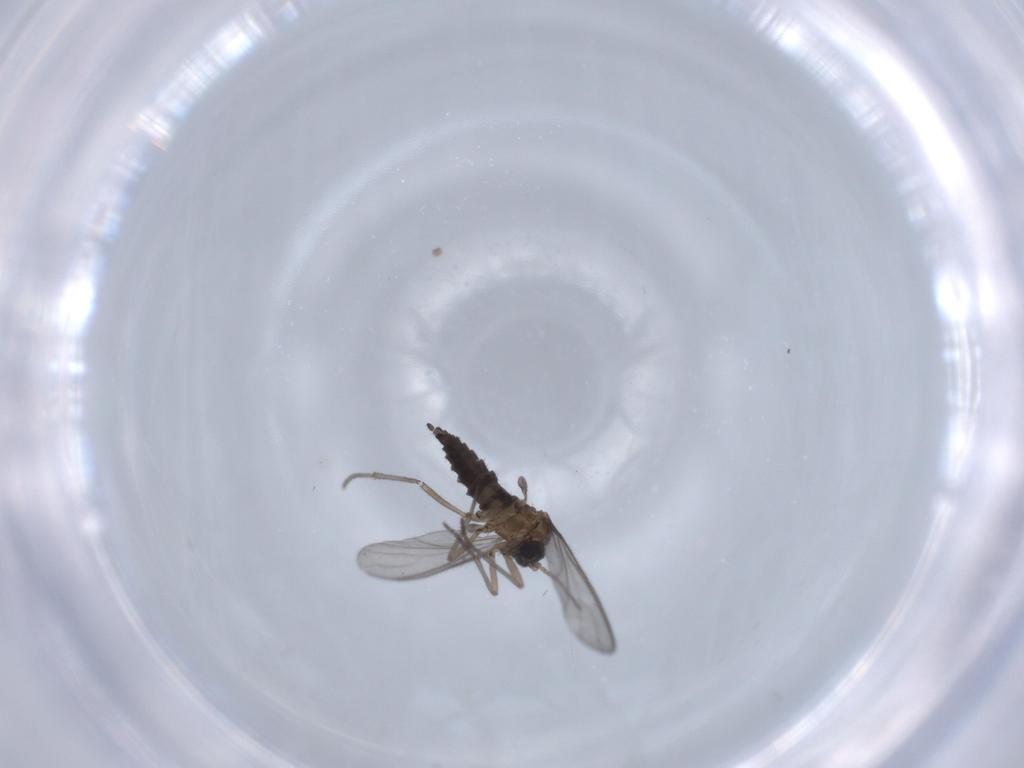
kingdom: Animalia
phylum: Arthropoda
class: Insecta
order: Diptera
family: Sciaridae
